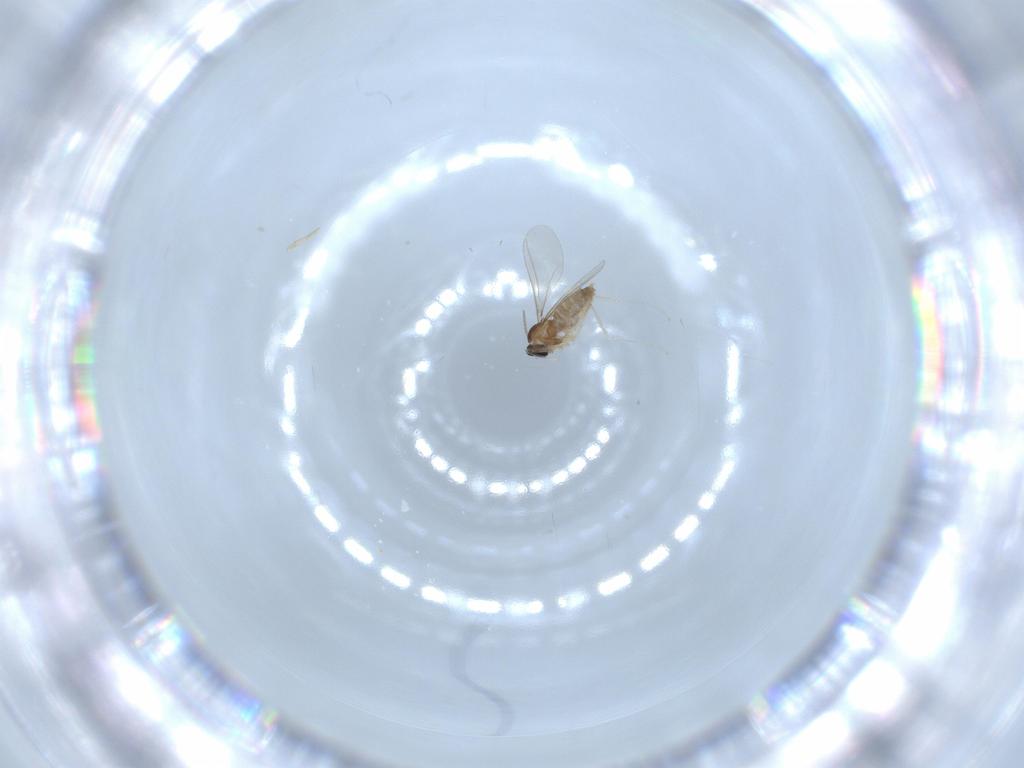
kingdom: Animalia
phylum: Arthropoda
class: Insecta
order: Diptera
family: Cecidomyiidae
